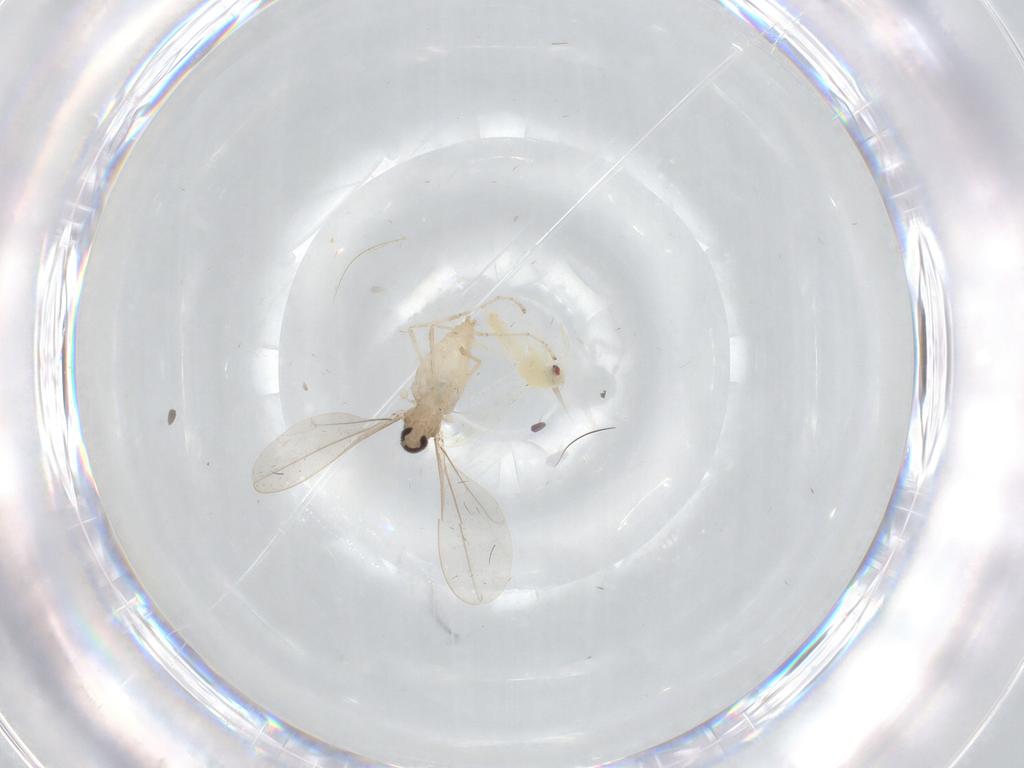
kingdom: Animalia
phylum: Arthropoda
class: Insecta
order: Diptera
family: Cecidomyiidae
